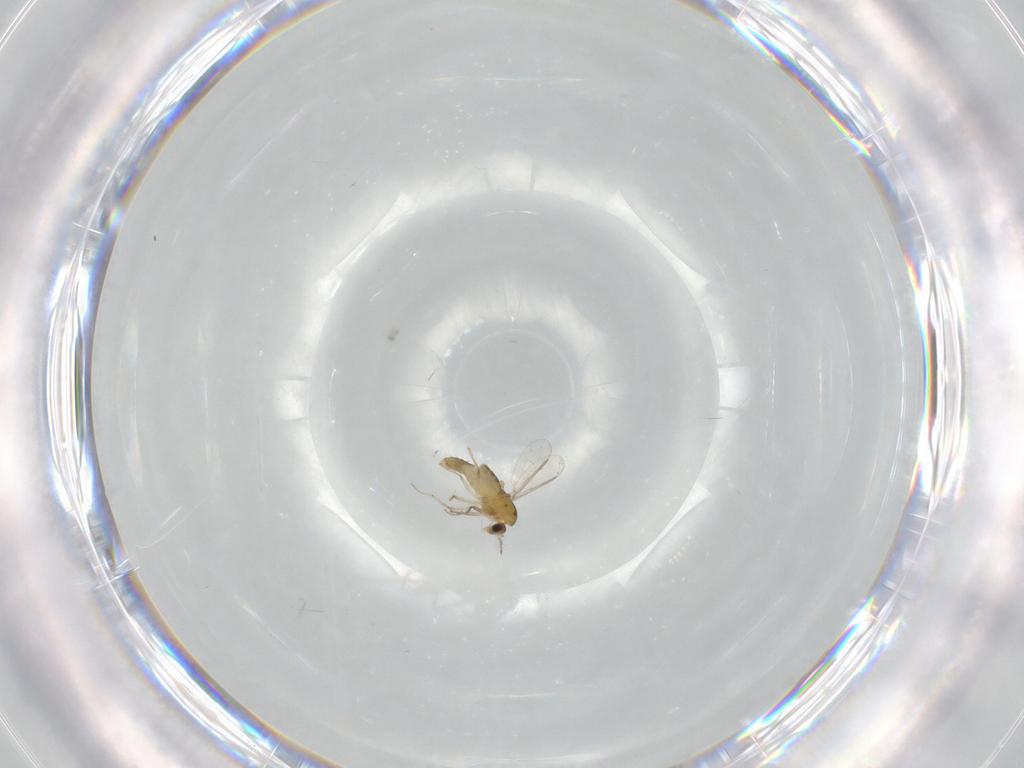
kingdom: Animalia
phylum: Arthropoda
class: Insecta
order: Diptera
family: Chironomidae
